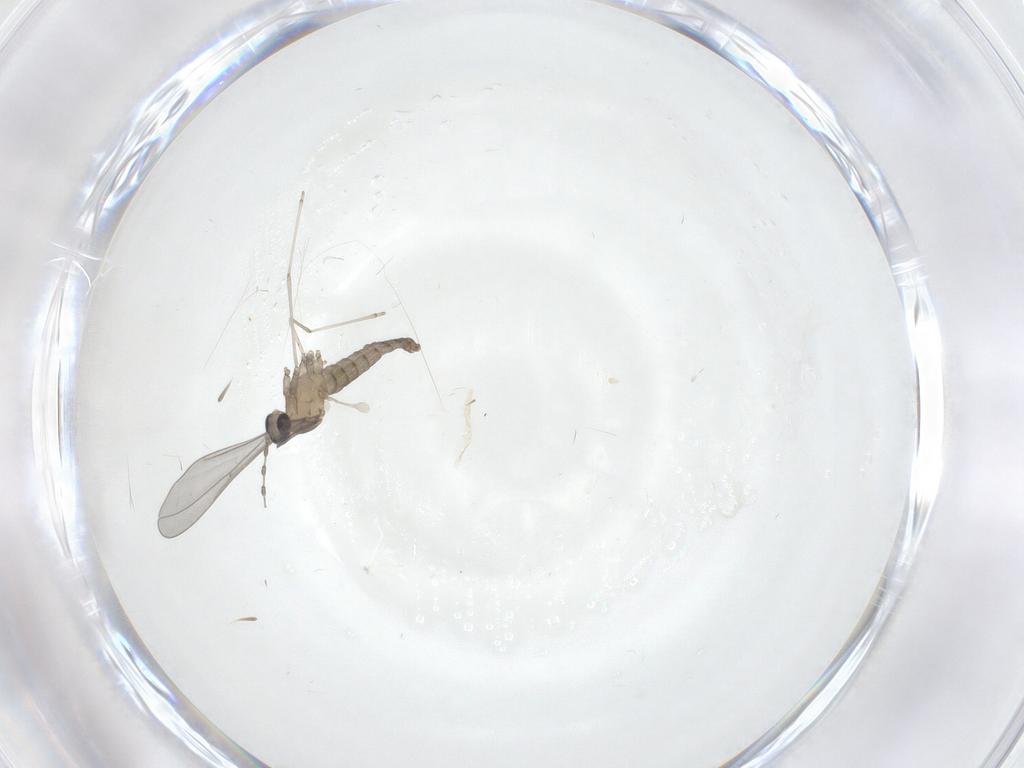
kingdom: Animalia
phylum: Arthropoda
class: Insecta
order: Diptera
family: Cecidomyiidae
